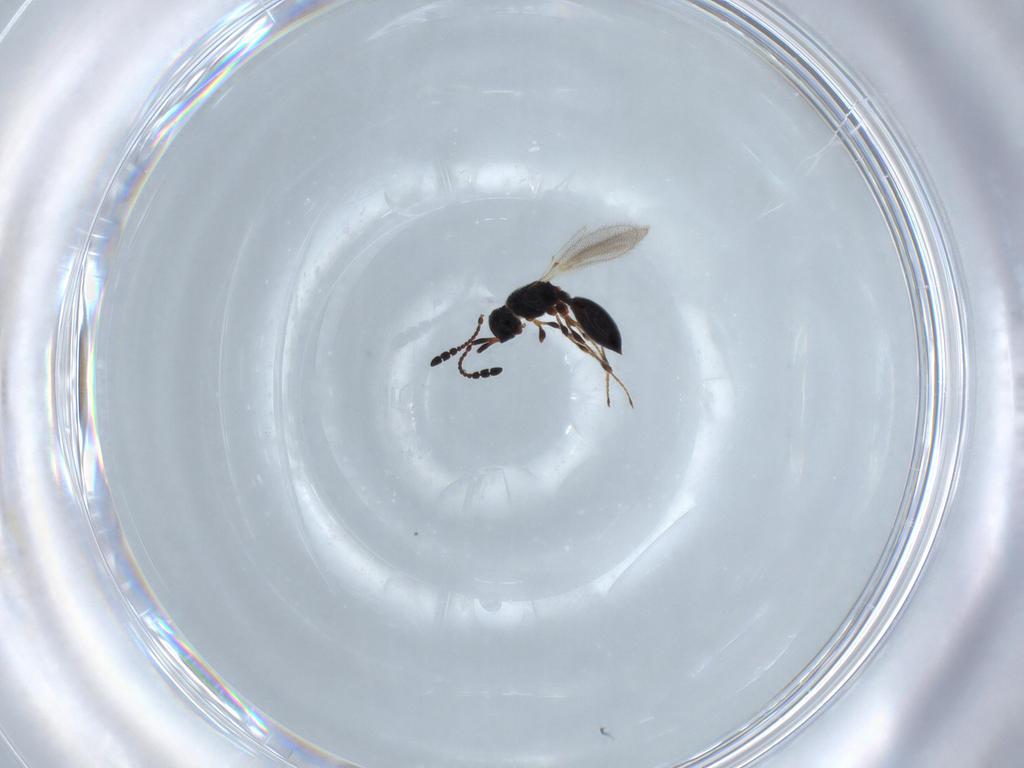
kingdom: Animalia
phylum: Arthropoda
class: Insecta
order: Hymenoptera
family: Diapriidae
